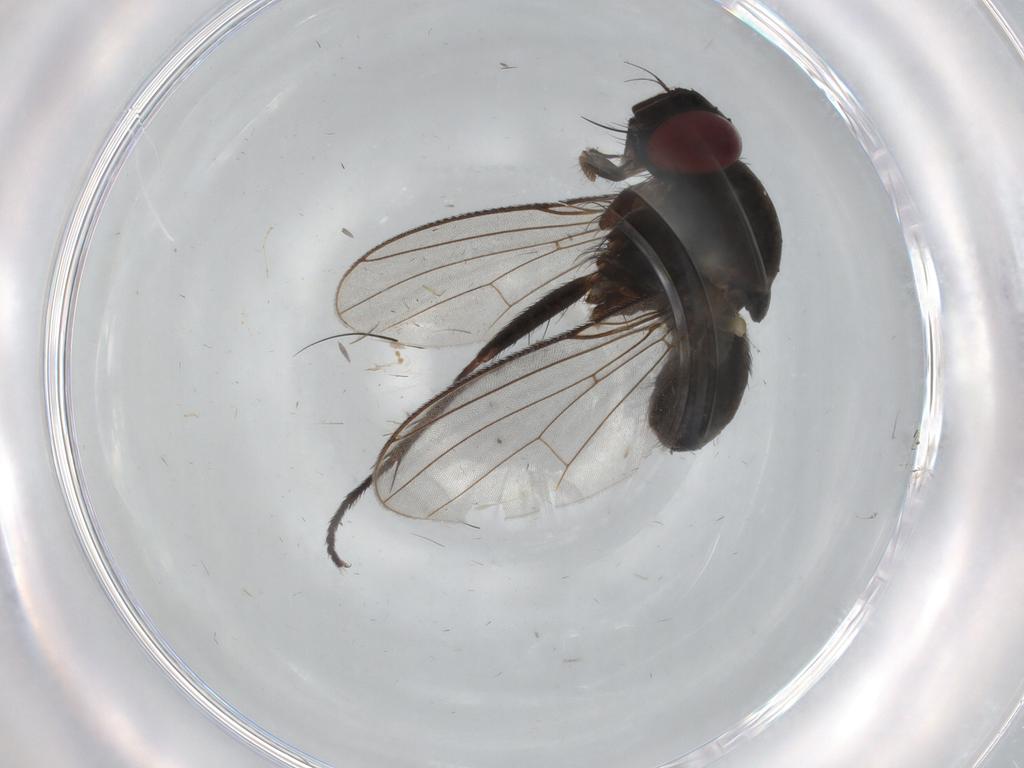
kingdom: Animalia
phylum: Arthropoda
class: Insecta
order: Diptera
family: Muscidae
